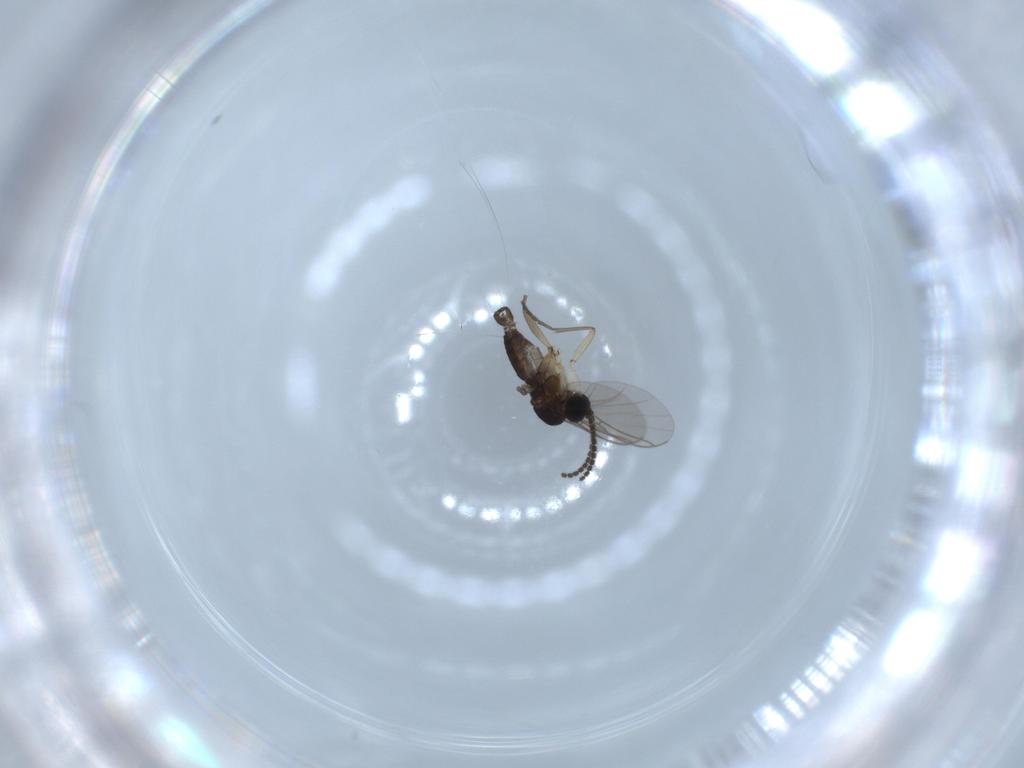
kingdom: Animalia
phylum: Arthropoda
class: Insecta
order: Diptera
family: Sciaridae
